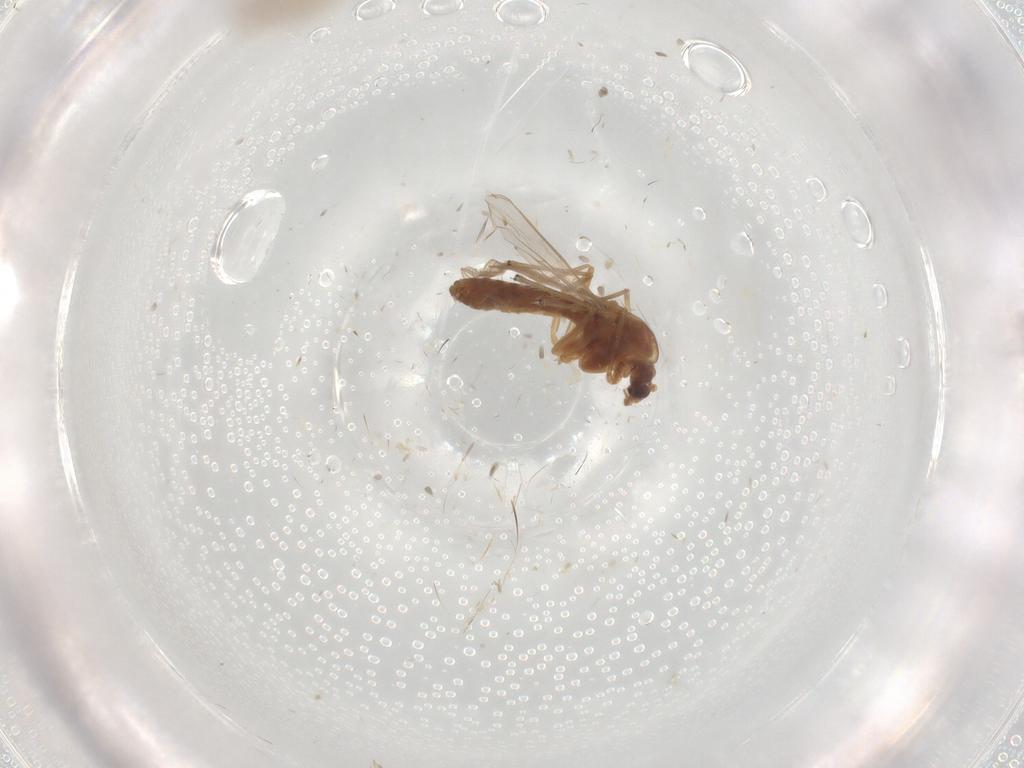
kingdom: Animalia
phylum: Arthropoda
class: Insecta
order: Diptera
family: Chironomidae
